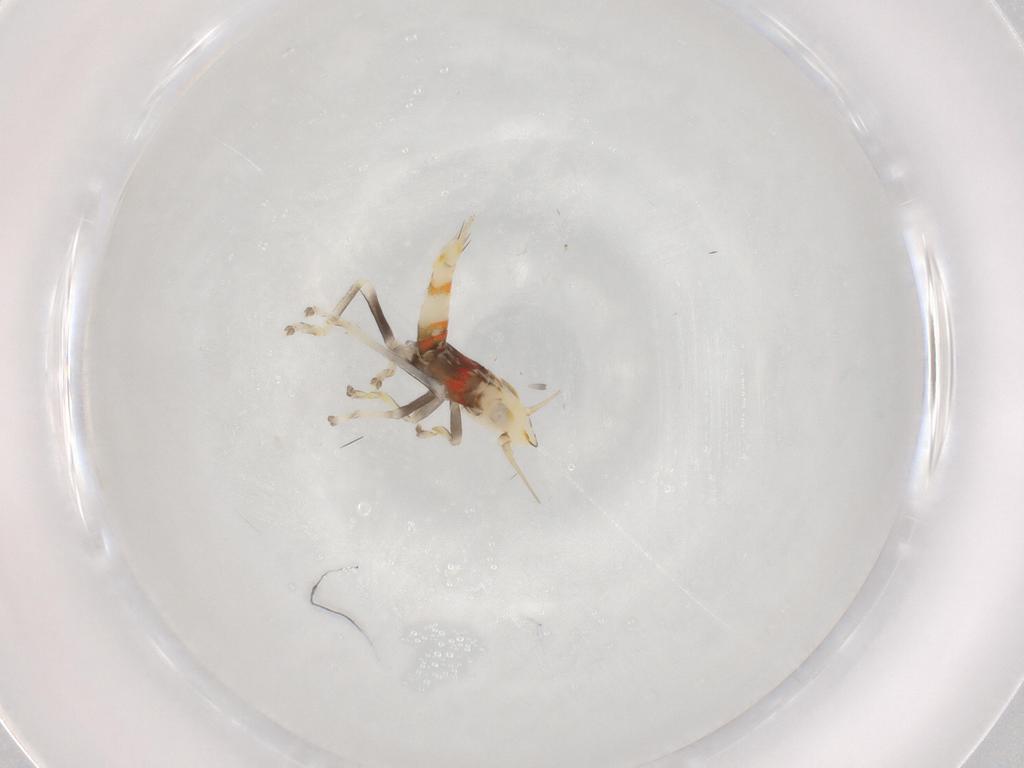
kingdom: Animalia
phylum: Arthropoda
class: Insecta
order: Hemiptera
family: Cicadellidae
